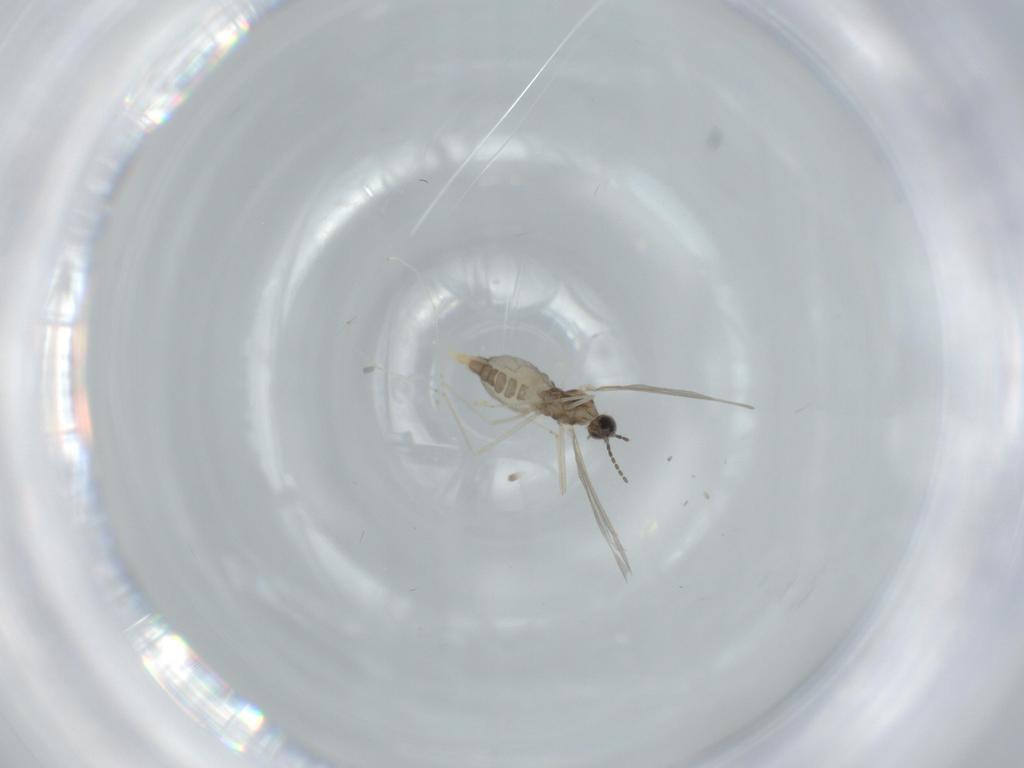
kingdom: Animalia
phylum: Arthropoda
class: Insecta
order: Diptera
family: Cecidomyiidae
